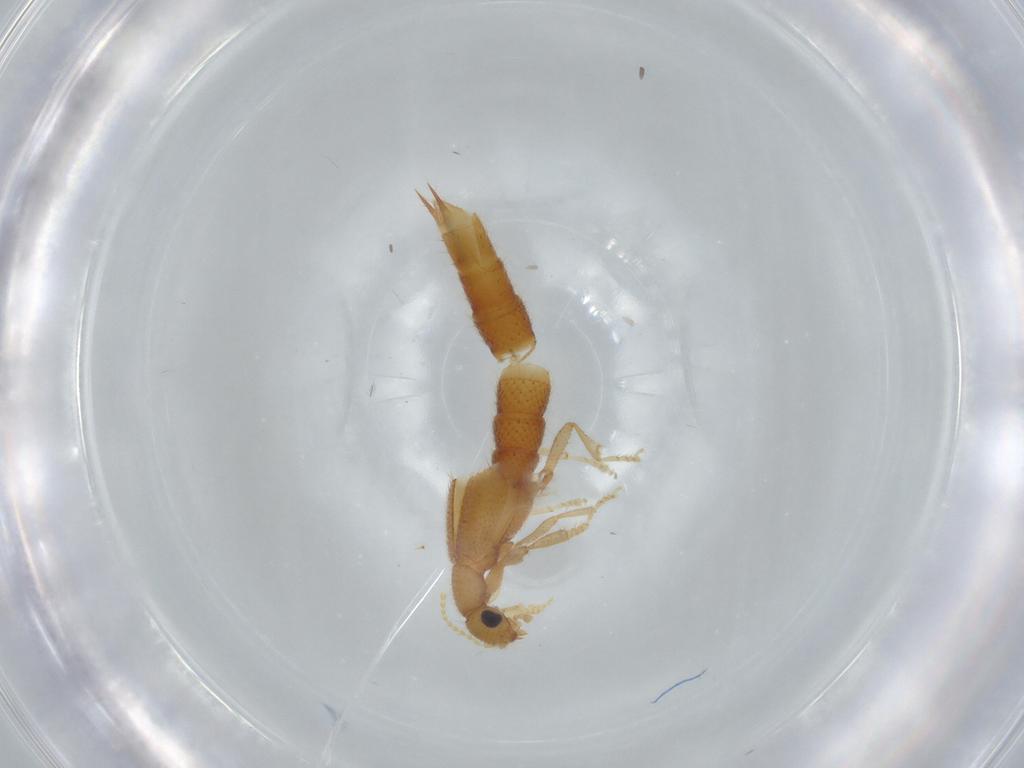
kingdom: Animalia
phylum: Arthropoda
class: Insecta
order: Coleoptera
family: Staphylinidae
